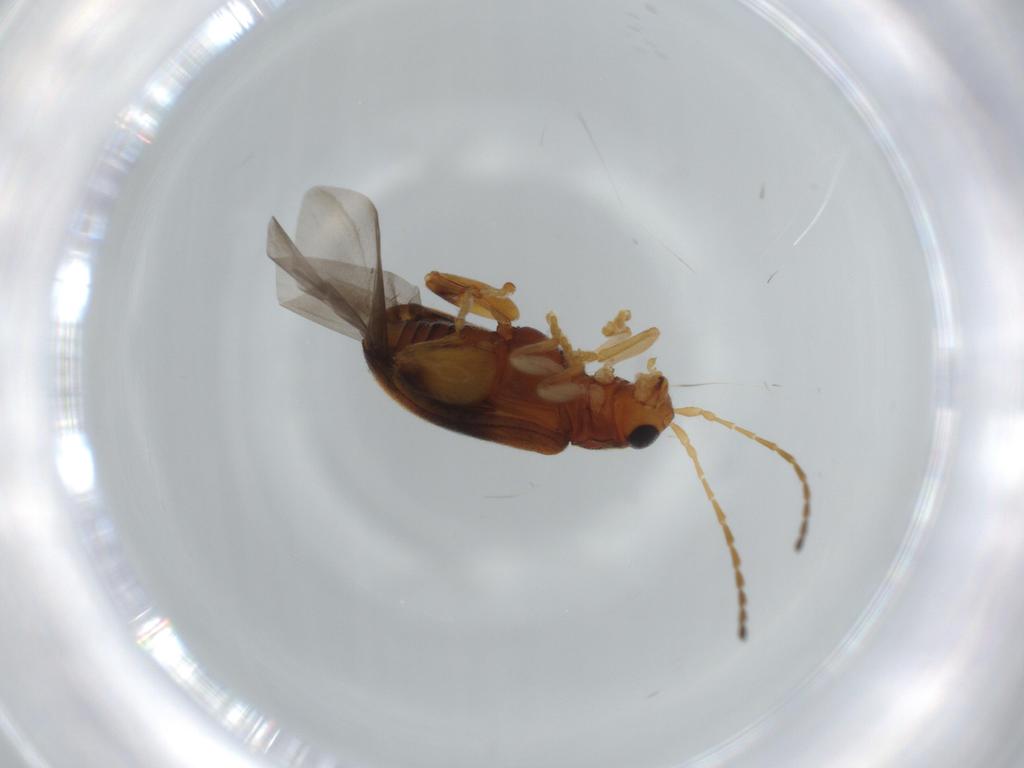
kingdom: Animalia
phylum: Arthropoda
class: Insecta
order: Coleoptera
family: Chrysomelidae
